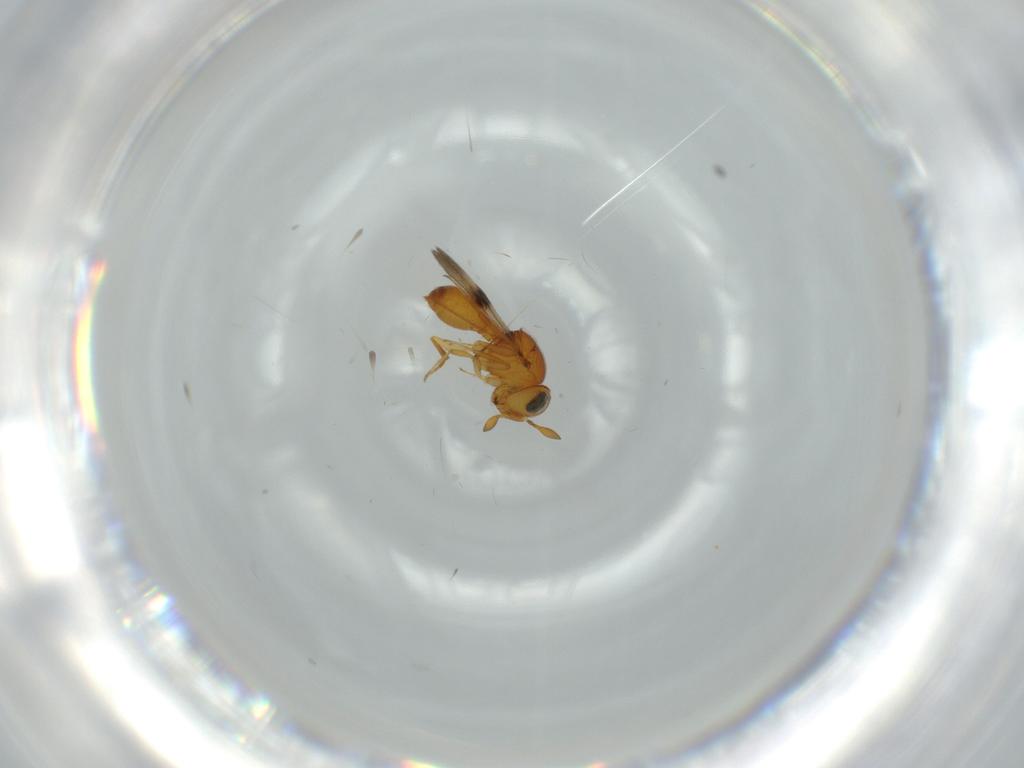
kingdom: Animalia
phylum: Arthropoda
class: Insecta
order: Hymenoptera
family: Scelionidae
